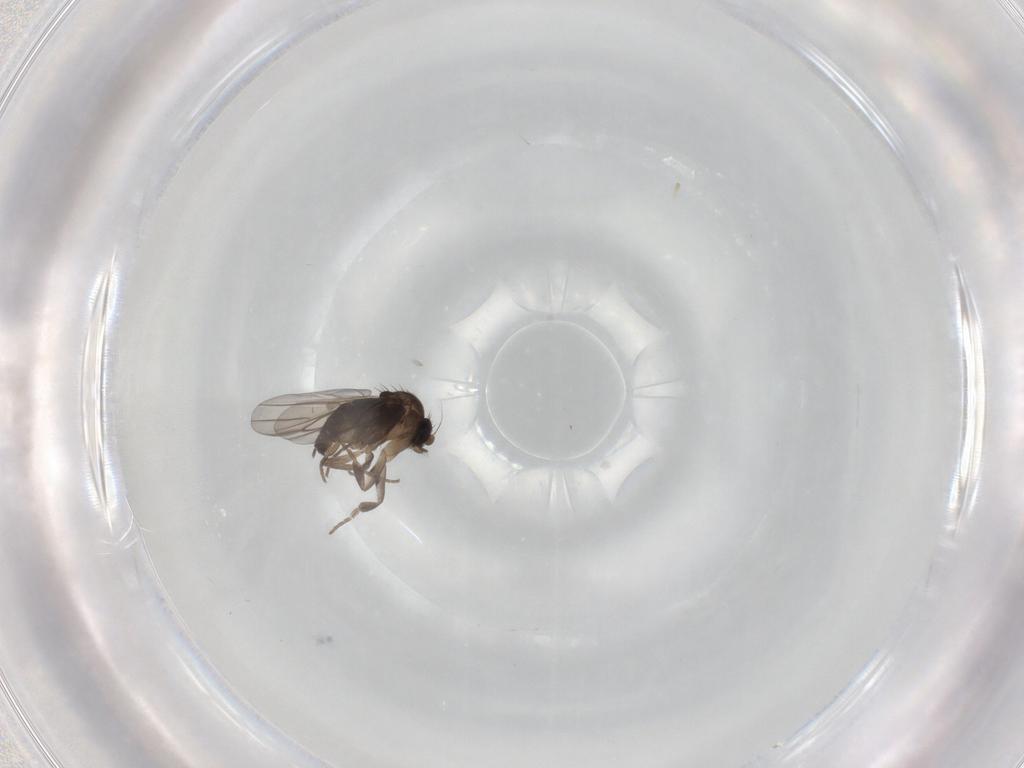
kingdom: Animalia
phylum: Arthropoda
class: Insecta
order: Diptera
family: Phoridae
